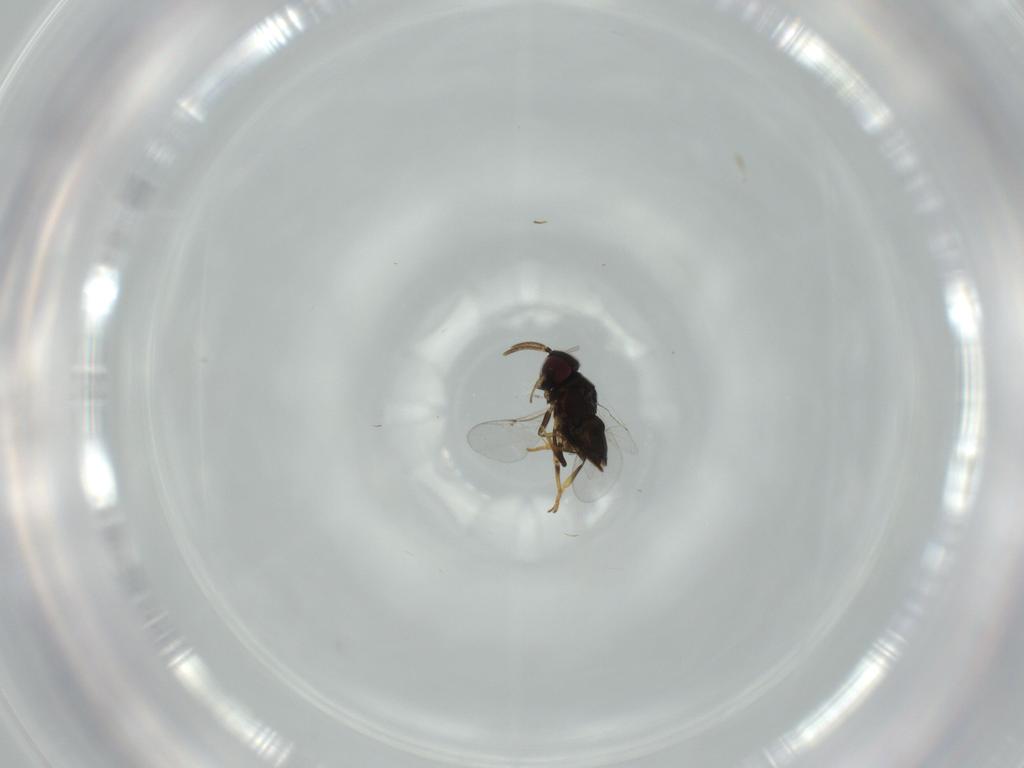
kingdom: Animalia
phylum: Arthropoda
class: Insecta
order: Hymenoptera
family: Encyrtidae
